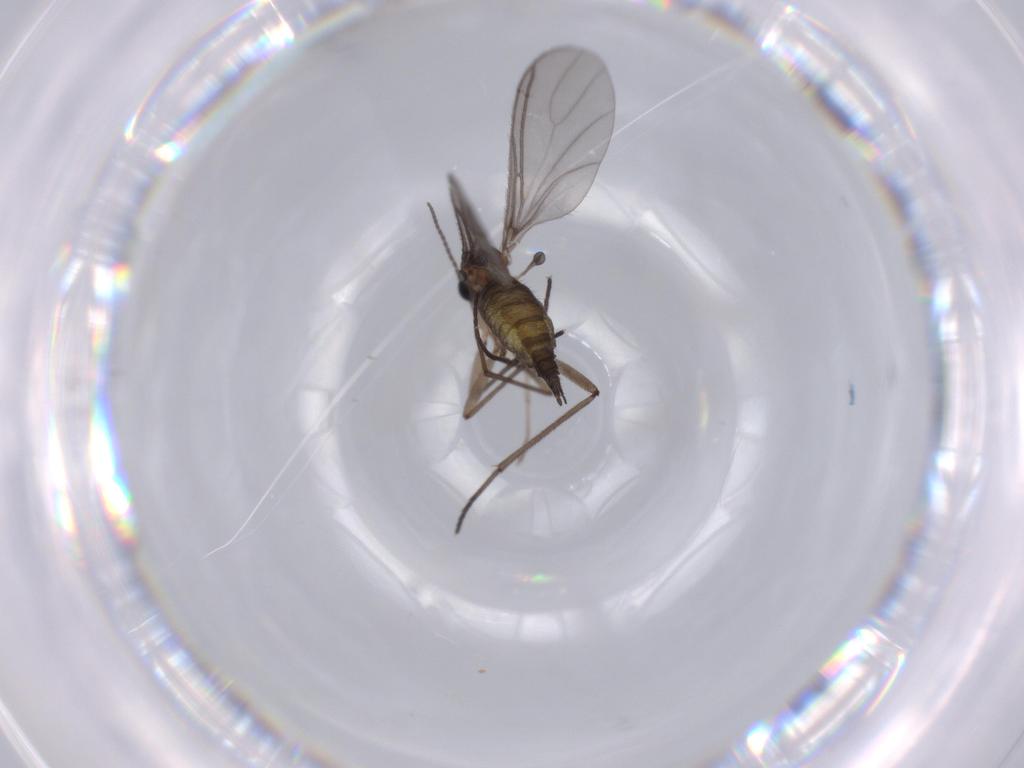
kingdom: Animalia
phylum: Arthropoda
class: Insecta
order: Diptera
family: Sciaridae
